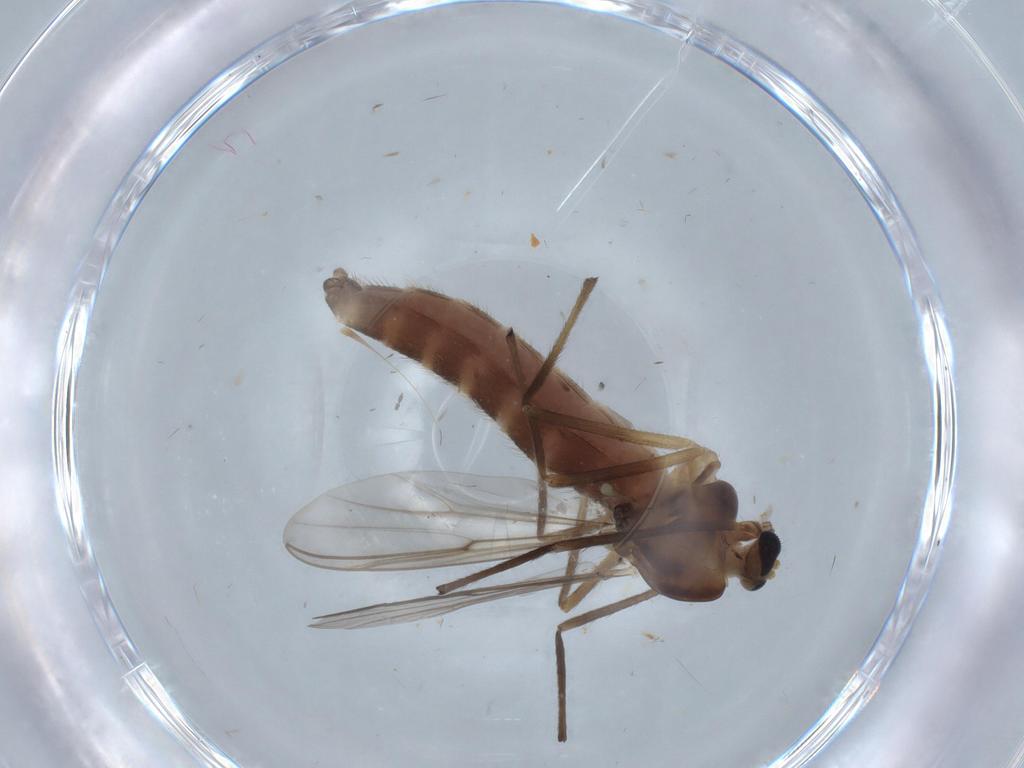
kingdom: Animalia
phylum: Arthropoda
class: Insecta
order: Diptera
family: Chironomidae
